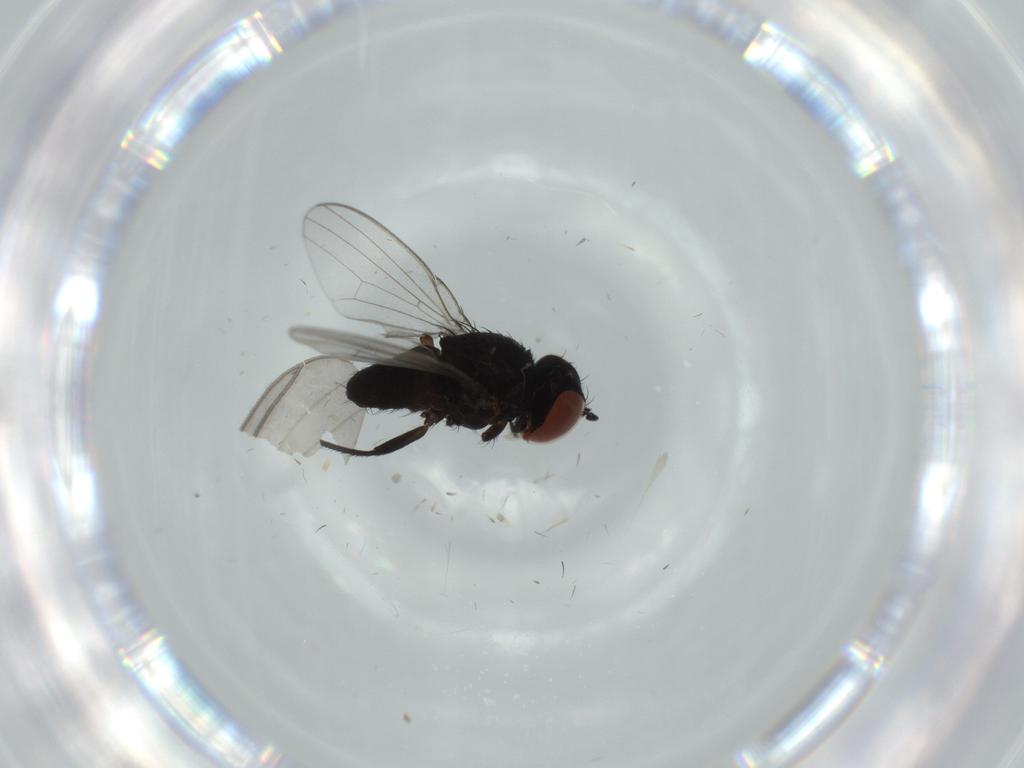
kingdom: Animalia
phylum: Arthropoda
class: Insecta
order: Diptera
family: Milichiidae
